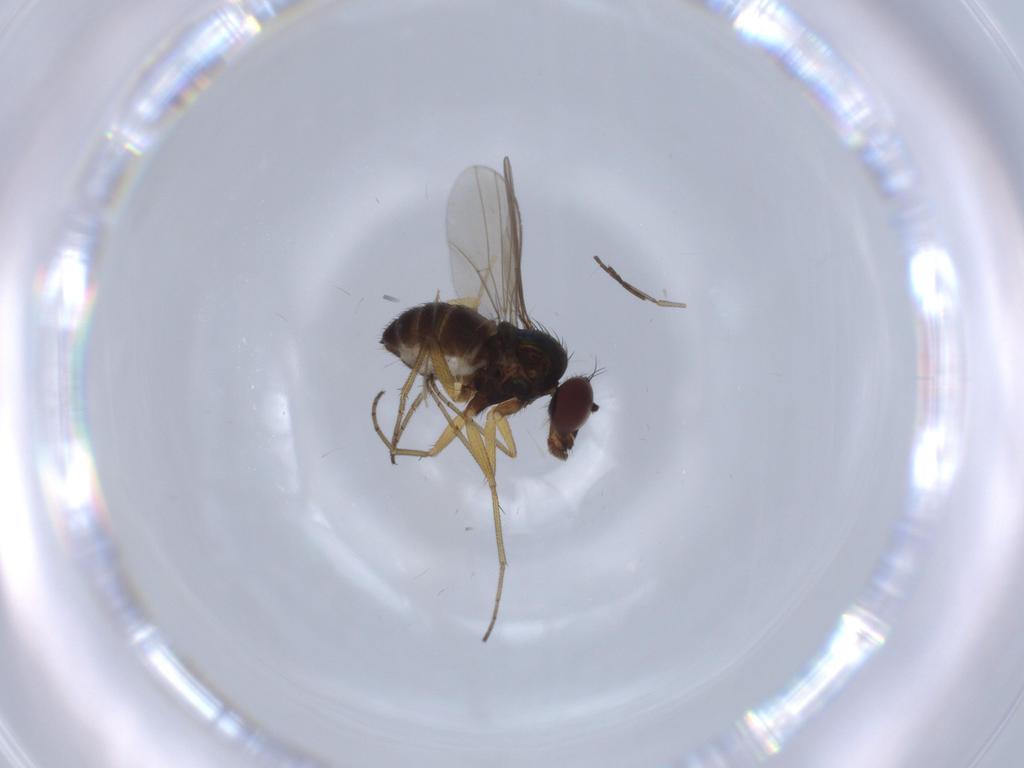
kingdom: Animalia
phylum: Arthropoda
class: Insecta
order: Diptera
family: Dolichopodidae
